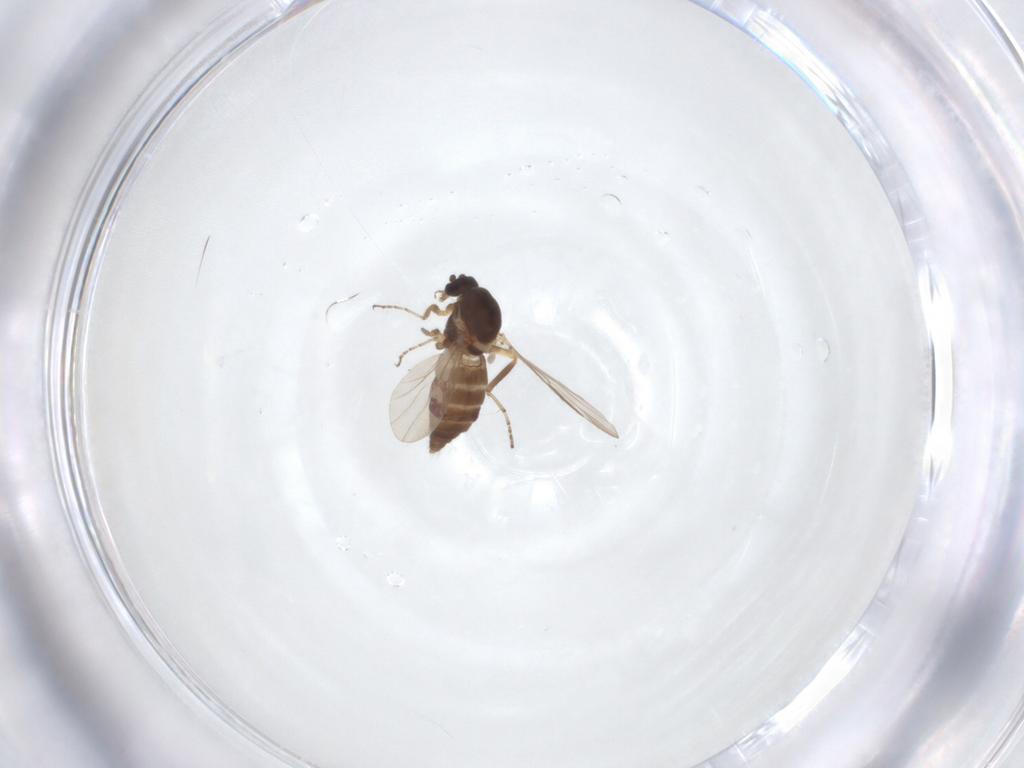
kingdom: Animalia
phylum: Arthropoda
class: Insecta
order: Diptera
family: Ceratopogonidae
